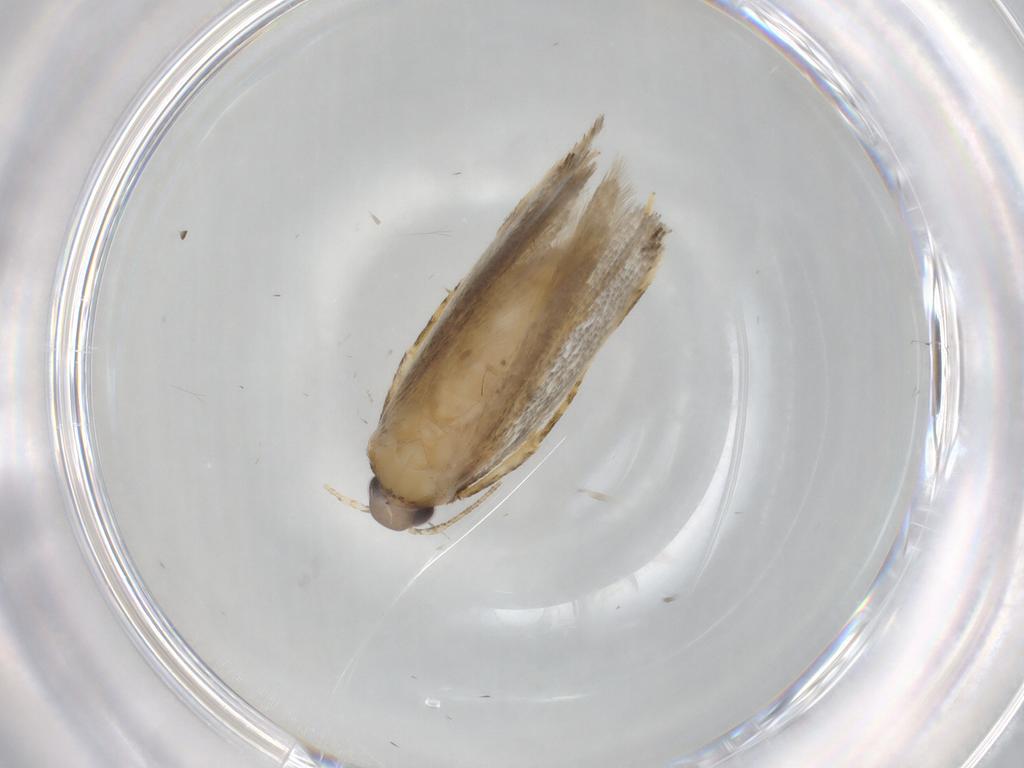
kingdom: Animalia
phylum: Arthropoda
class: Insecta
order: Lepidoptera
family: Autostichidae
